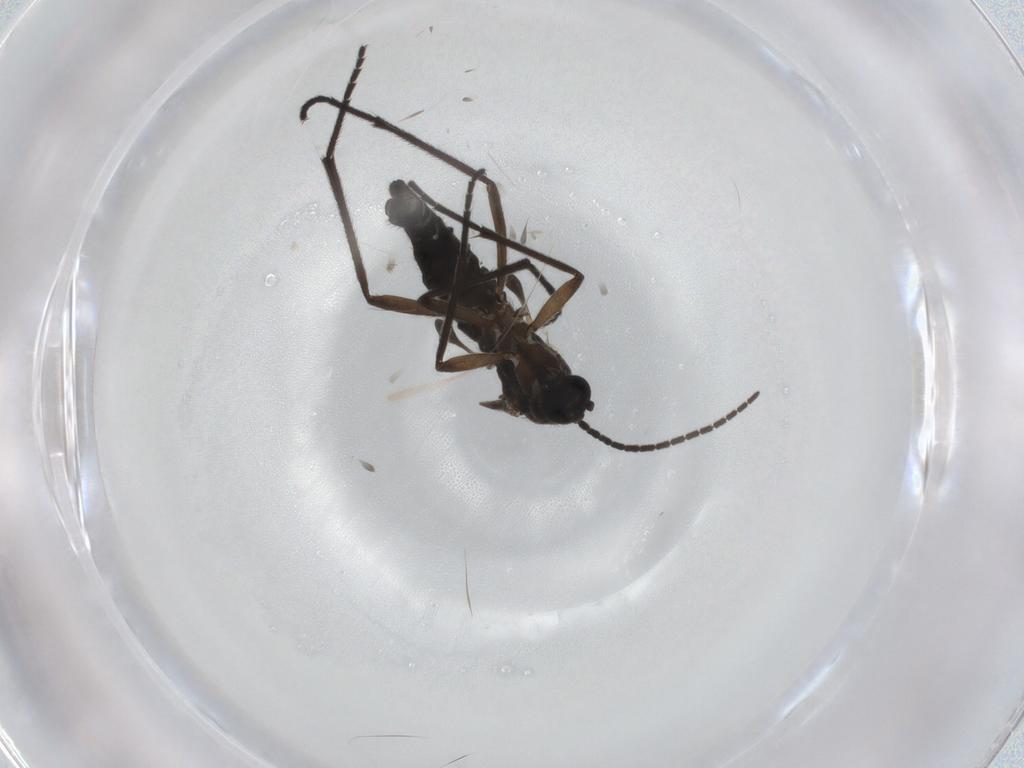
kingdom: Animalia
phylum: Arthropoda
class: Insecta
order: Diptera
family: Sciaridae
